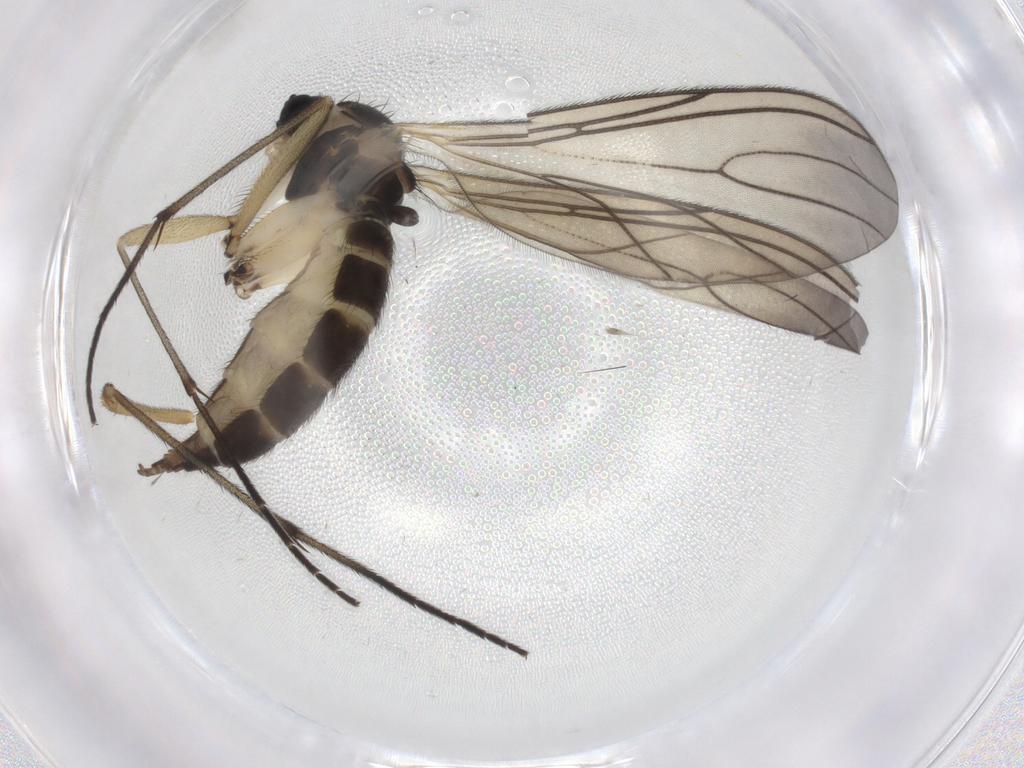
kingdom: Animalia
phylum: Arthropoda
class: Insecta
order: Diptera
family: Sciaridae
